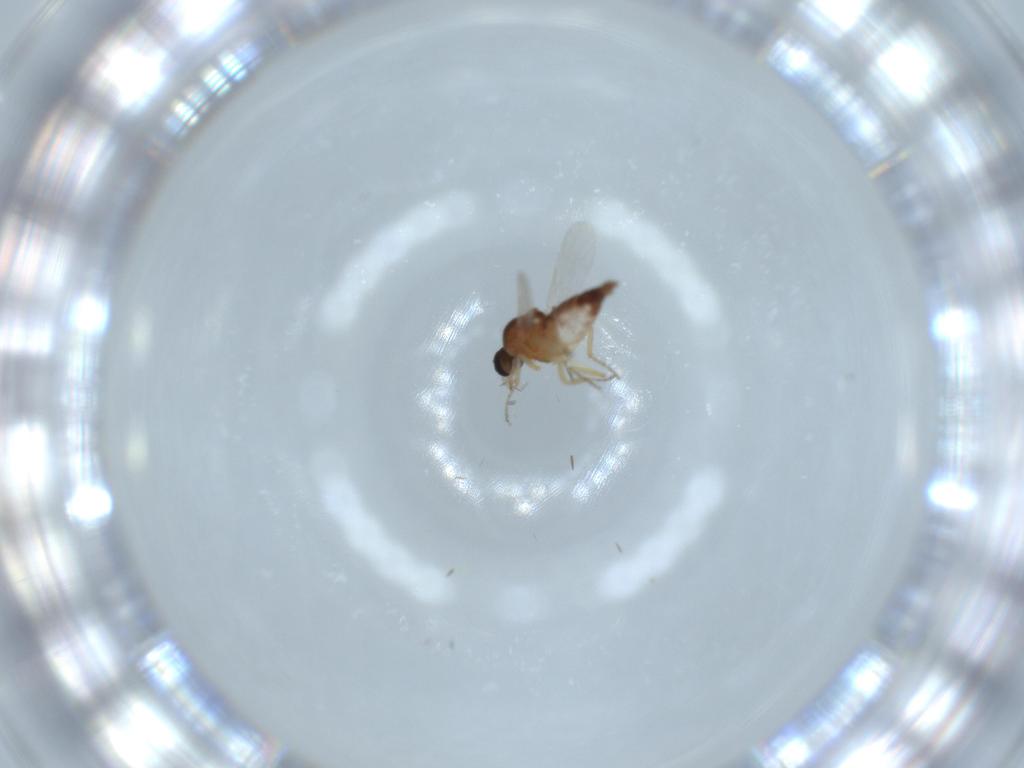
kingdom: Animalia
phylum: Arthropoda
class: Insecta
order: Diptera
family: Ceratopogonidae
